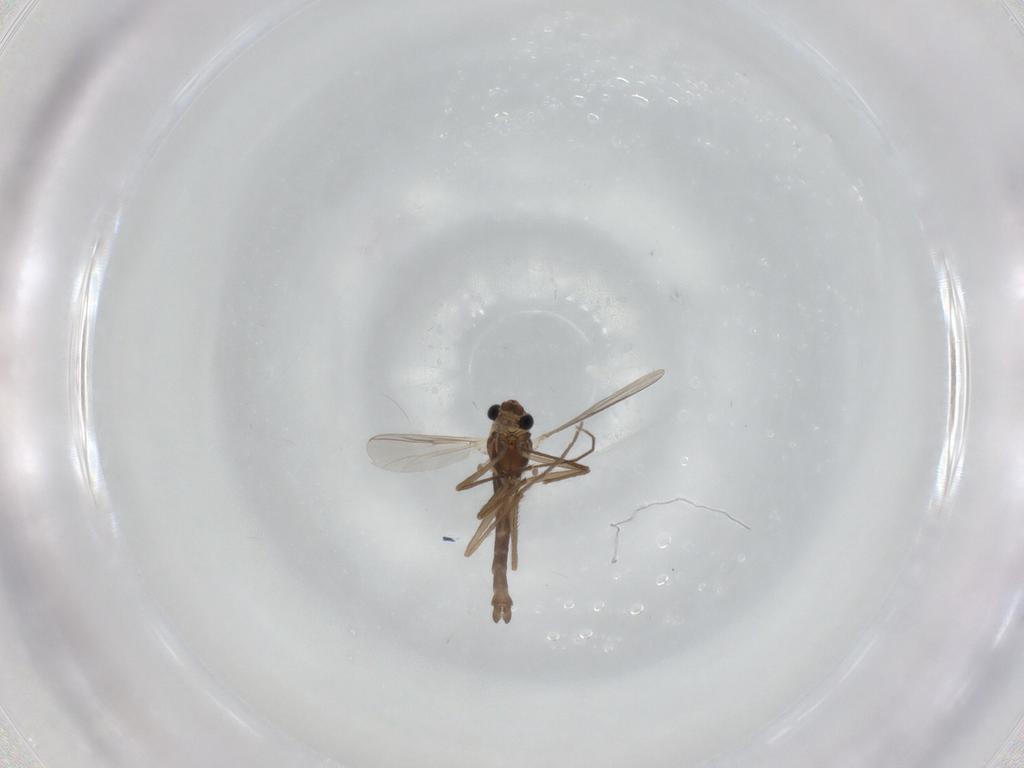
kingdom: Animalia
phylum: Arthropoda
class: Insecta
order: Diptera
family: Chironomidae
